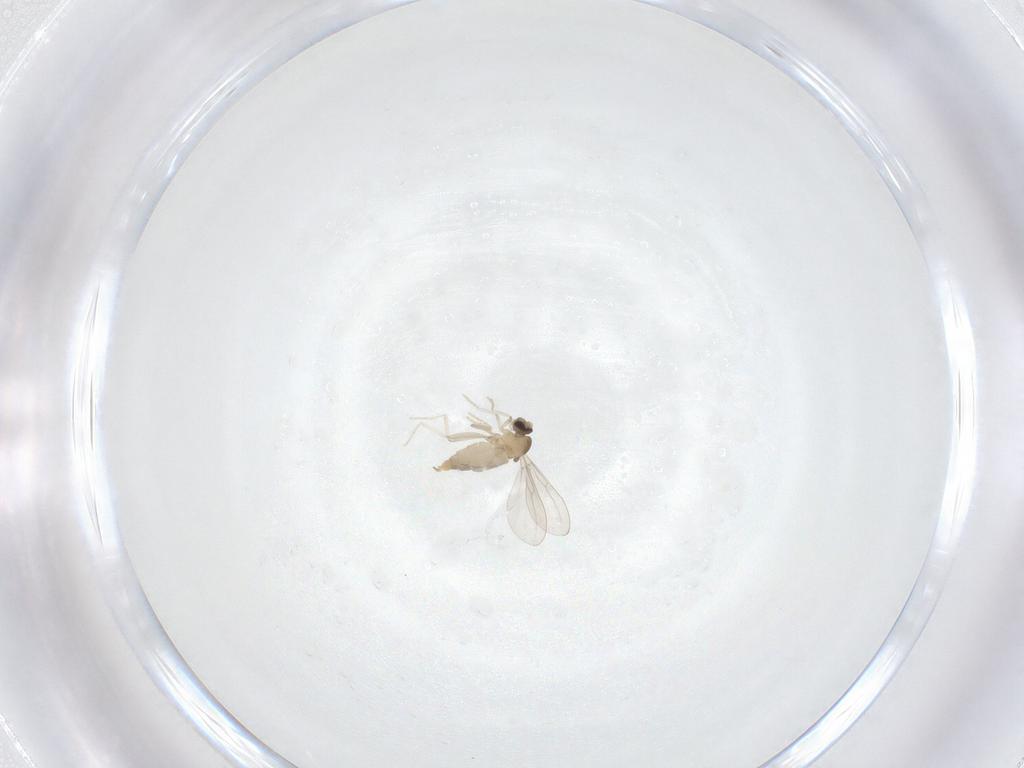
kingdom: Animalia
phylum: Arthropoda
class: Insecta
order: Diptera
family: Cecidomyiidae
